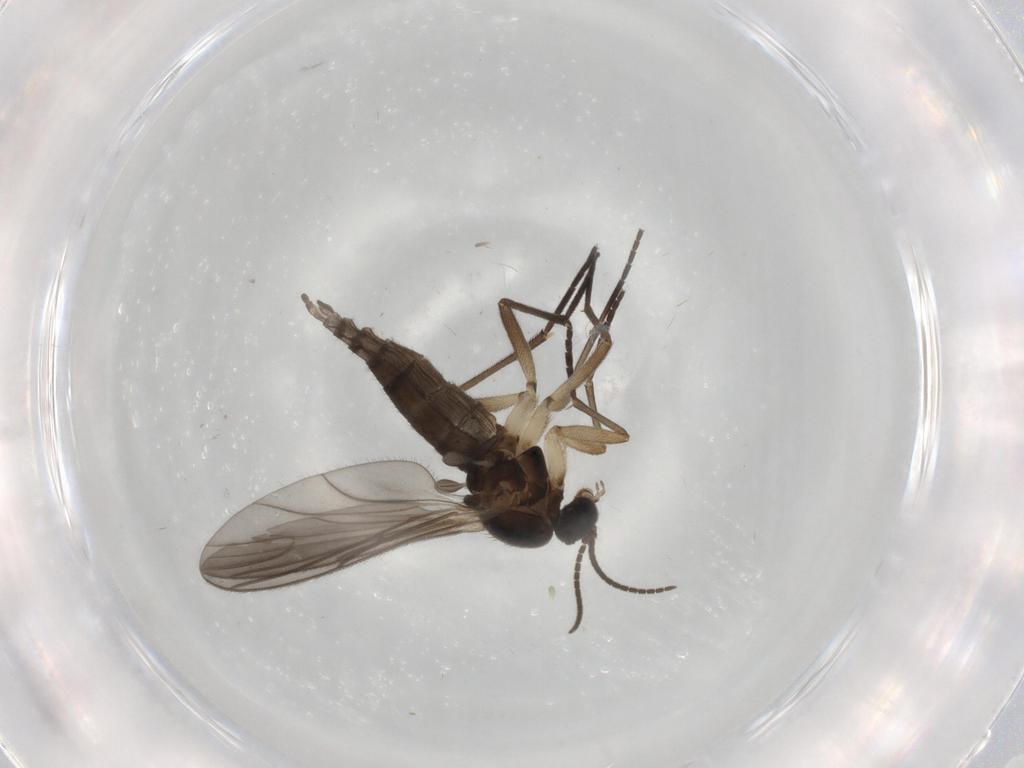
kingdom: Animalia
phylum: Arthropoda
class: Insecta
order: Diptera
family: Sciaridae
